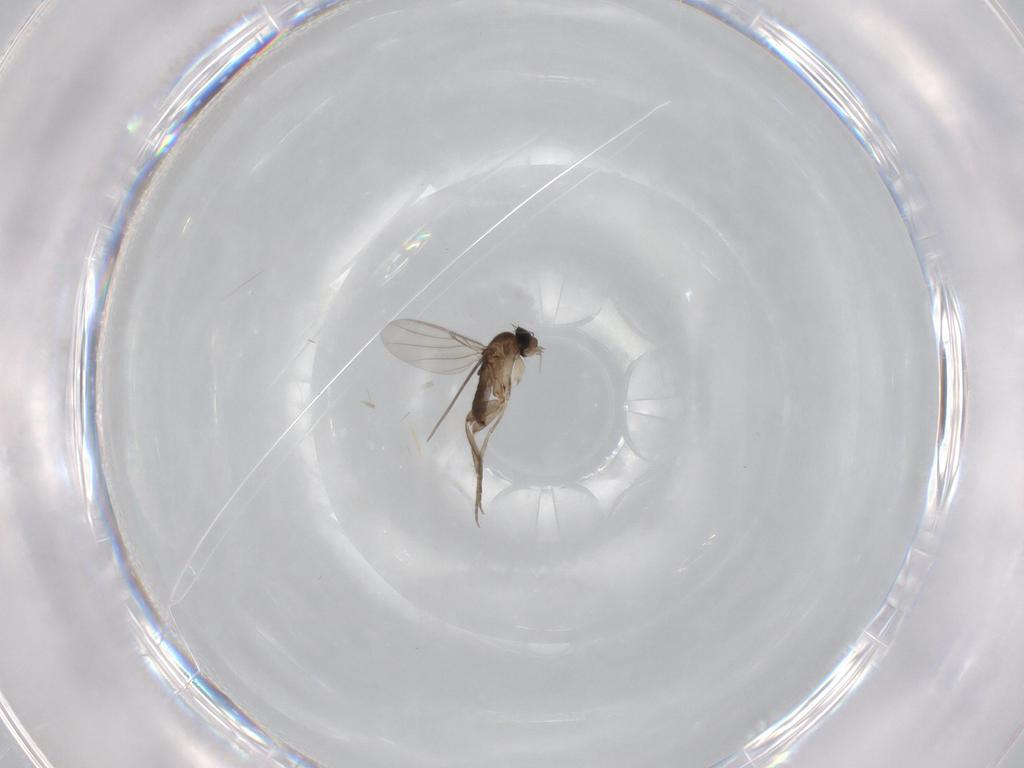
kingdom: Animalia
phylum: Arthropoda
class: Insecta
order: Diptera
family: Phoridae
